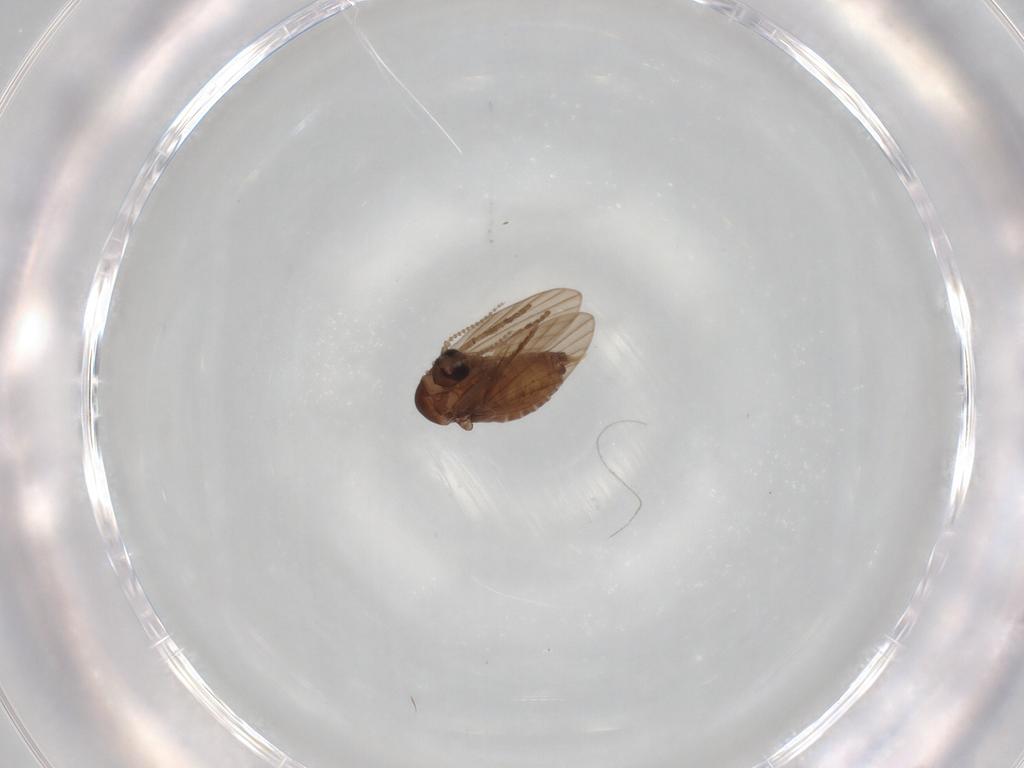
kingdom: Animalia
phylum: Arthropoda
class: Insecta
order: Diptera
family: Psychodidae
